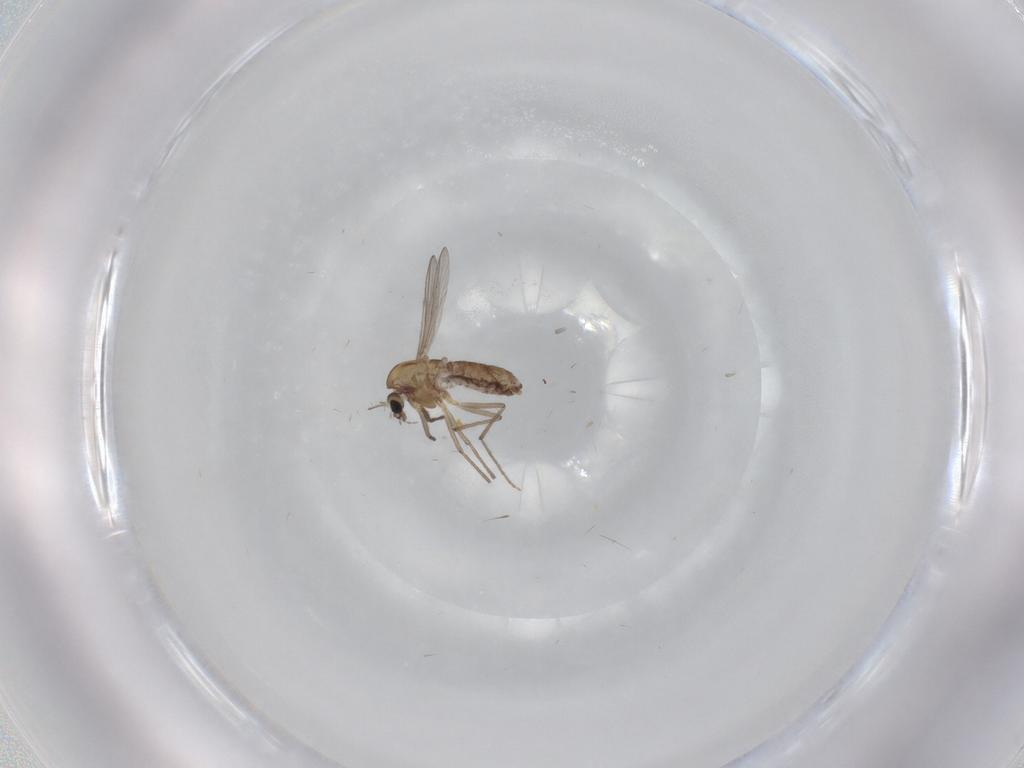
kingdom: Animalia
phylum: Arthropoda
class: Insecta
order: Diptera
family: Chironomidae
